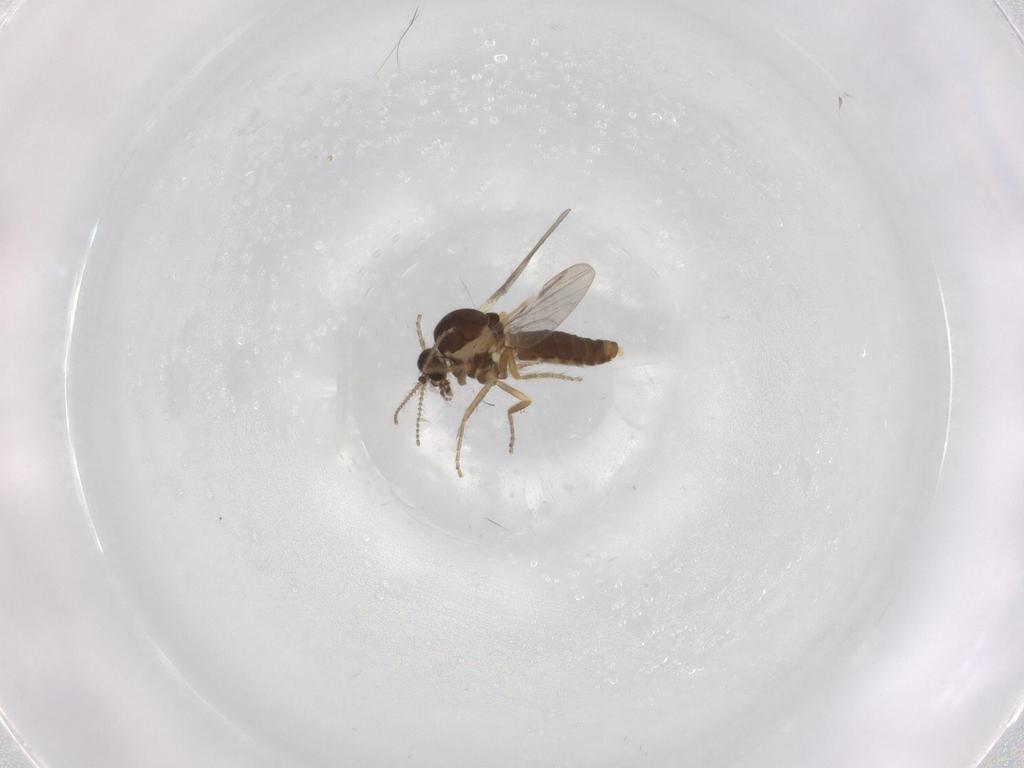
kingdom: Animalia
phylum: Arthropoda
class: Insecta
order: Diptera
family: Ceratopogonidae
